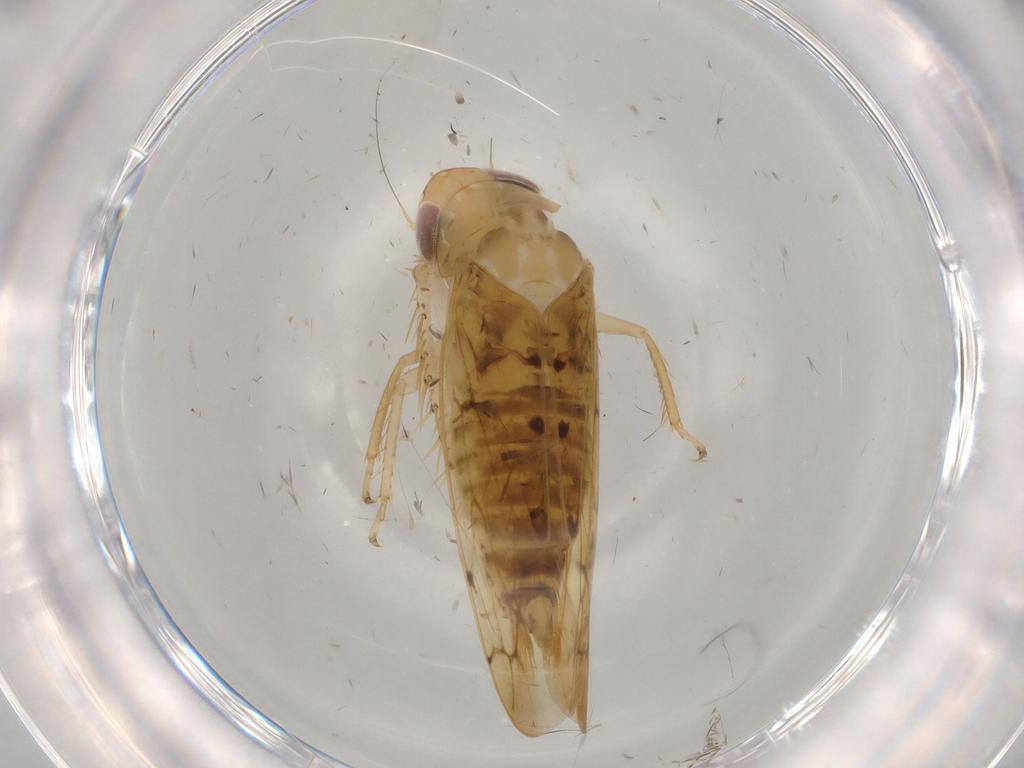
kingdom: Animalia
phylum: Arthropoda
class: Insecta
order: Hemiptera
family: Cicadellidae
